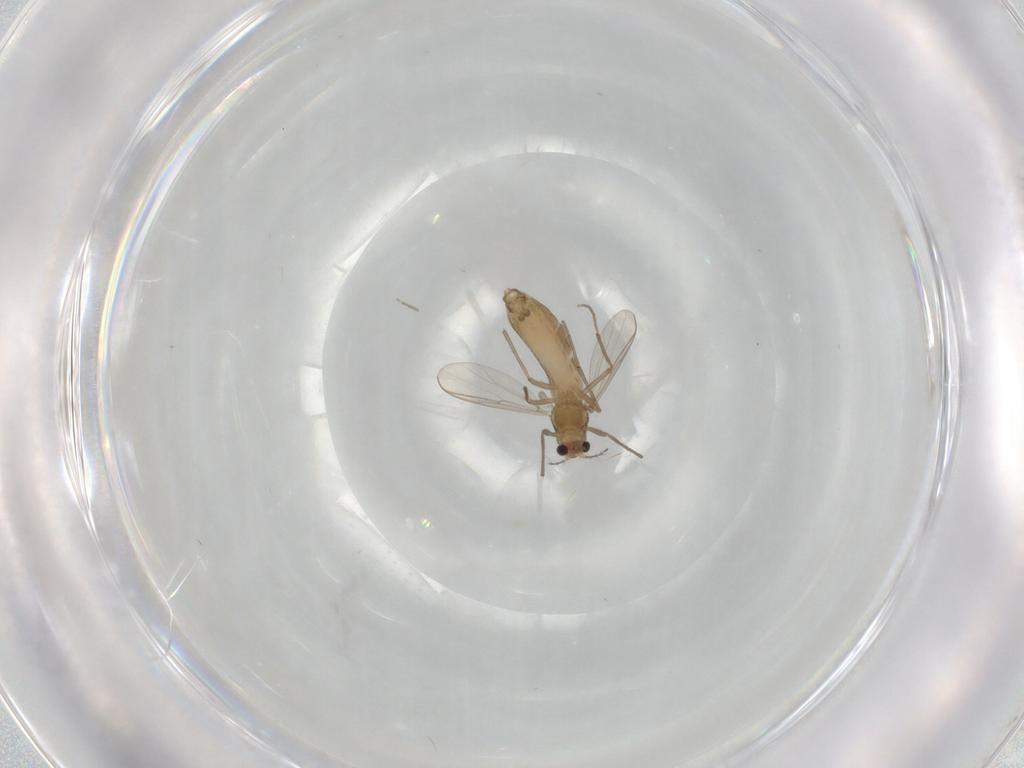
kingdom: Animalia
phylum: Arthropoda
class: Insecta
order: Diptera
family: Chironomidae
